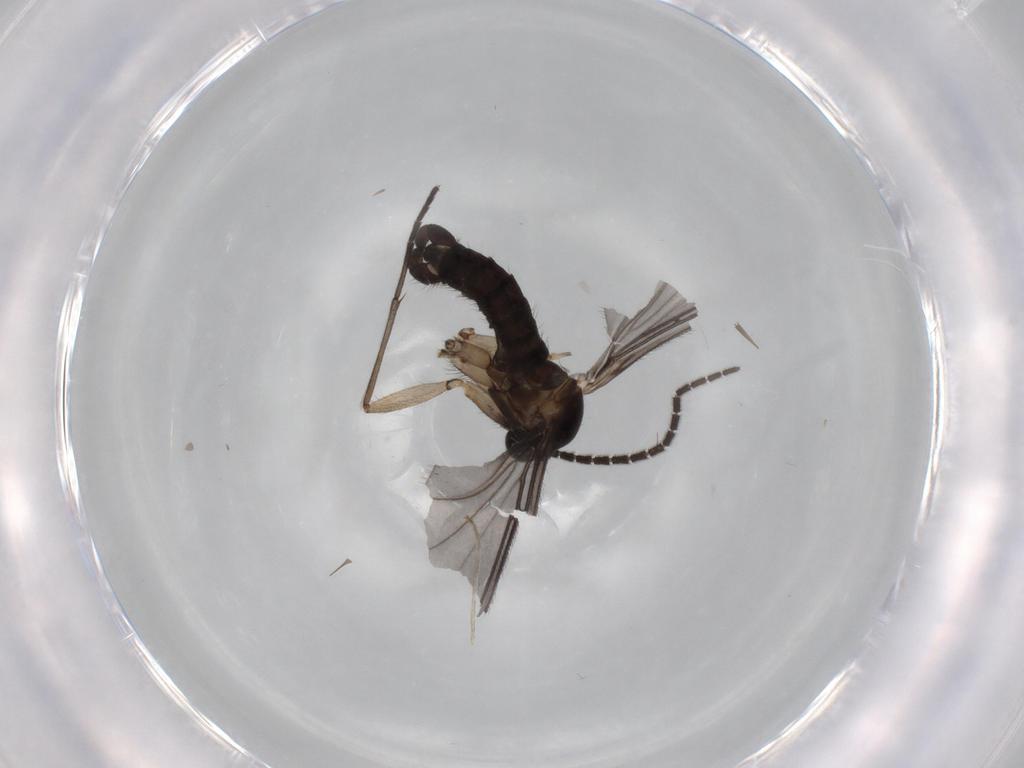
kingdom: Animalia
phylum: Arthropoda
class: Insecta
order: Diptera
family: Sciaridae
